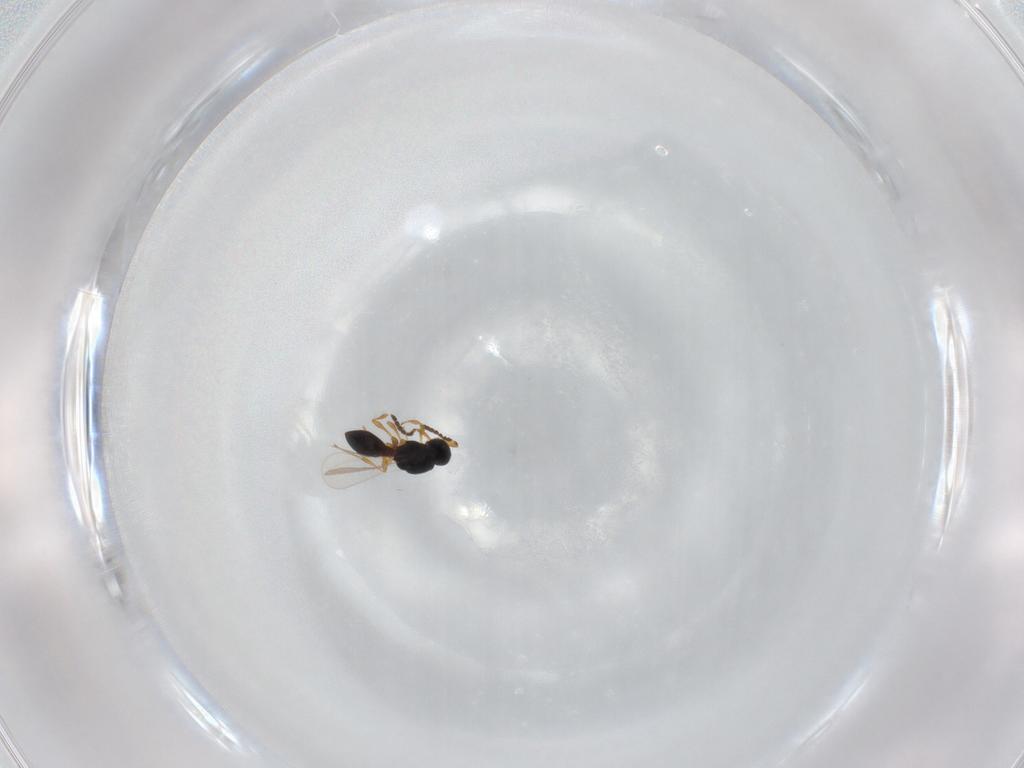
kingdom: Animalia
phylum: Arthropoda
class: Insecta
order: Hymenoptera
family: Platygastridae
